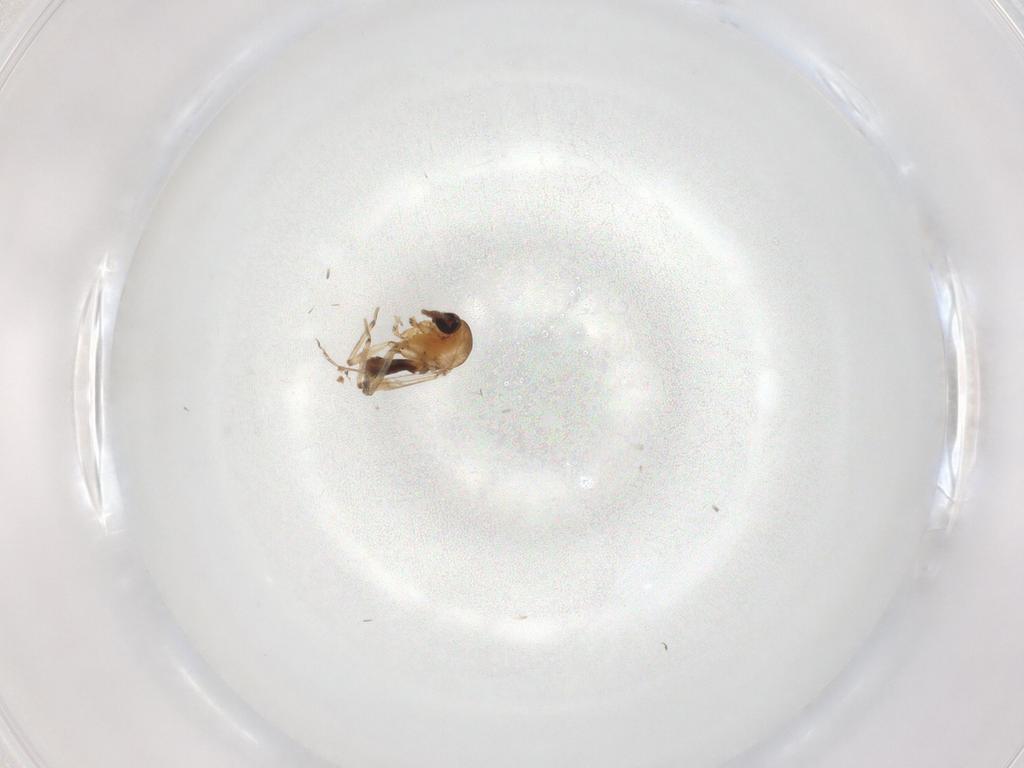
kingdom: Animalia
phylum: Arthropoda
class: Insecta
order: Diptera
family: Ceratopogonidae
